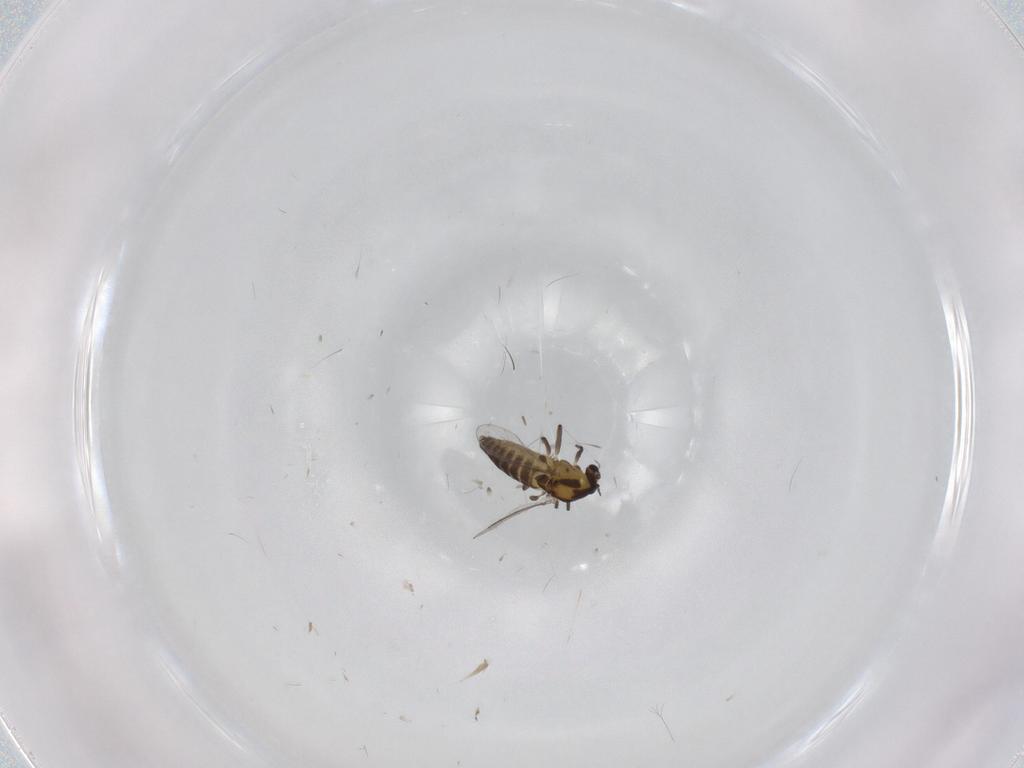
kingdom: Animalia
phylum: Arthropoda
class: Insecta
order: Diptera
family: Chironomidae
